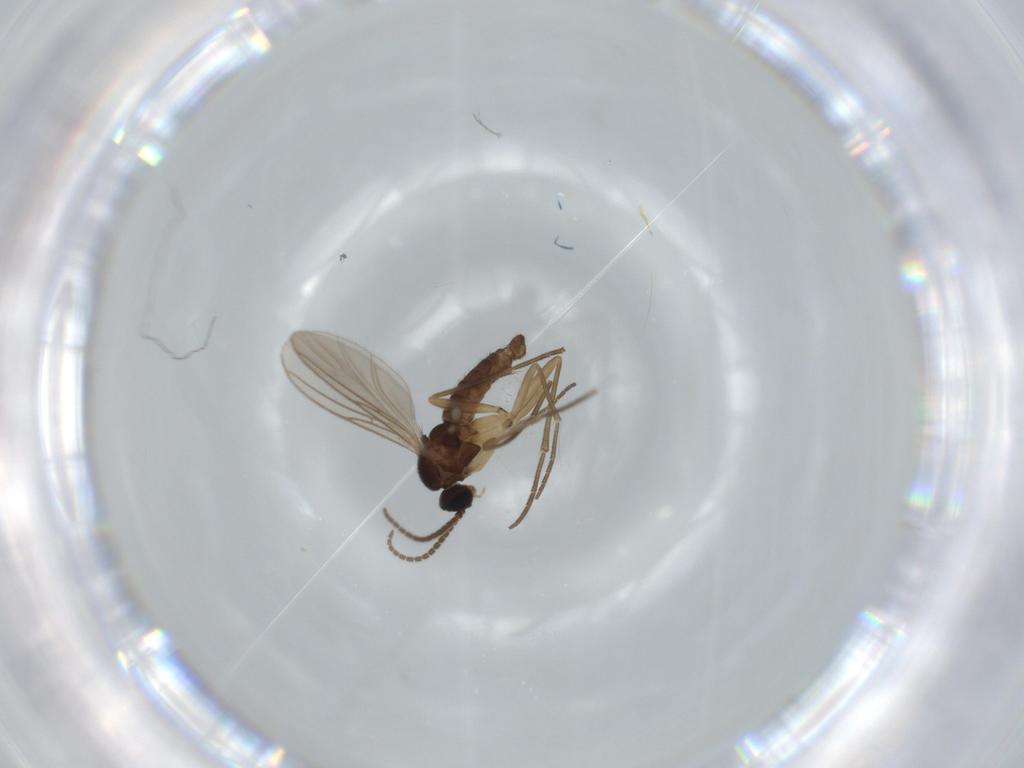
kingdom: Animalia
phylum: Arthropoda
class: Insecta
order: Diptera
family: Sciaridae
